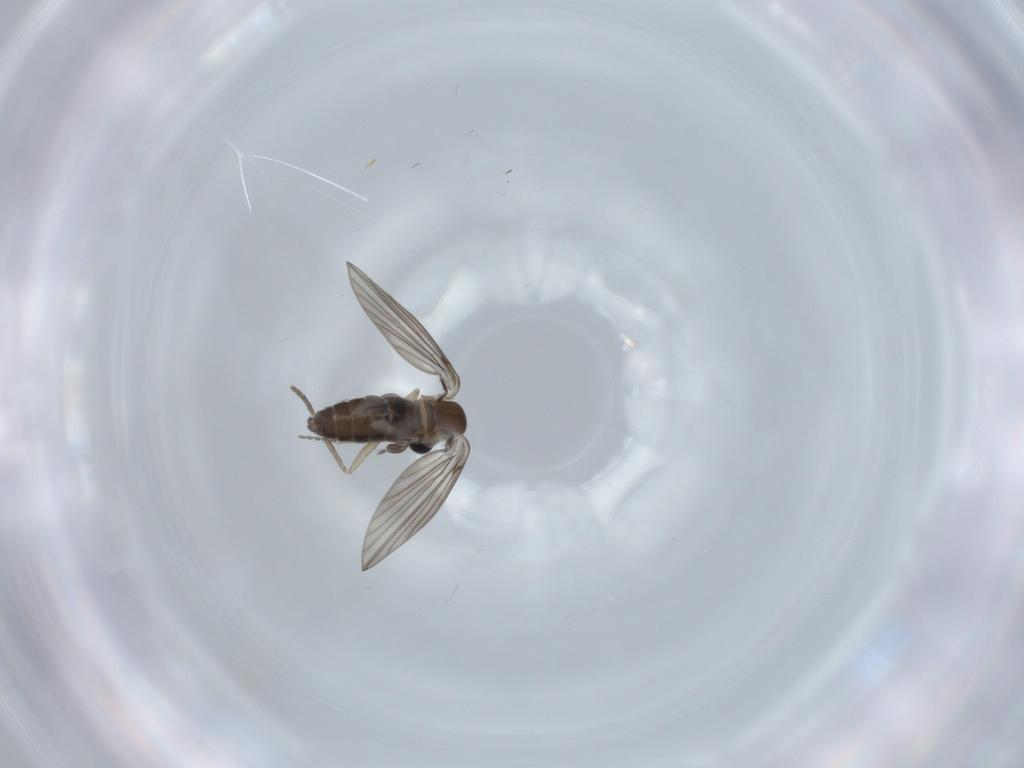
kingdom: Animalia
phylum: Arthropoda
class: Insecta
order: Diptera
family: Psychodidae
